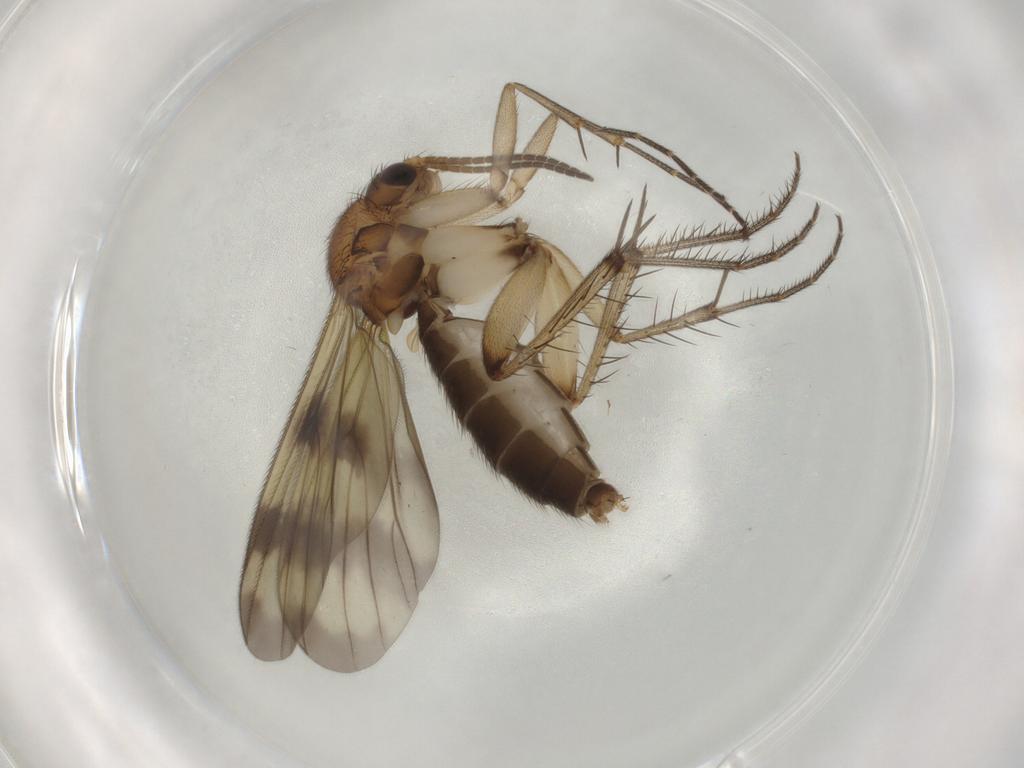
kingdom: Animalia
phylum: Arthropoda
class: Insecta
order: Diptera
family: Mycetophilidae
